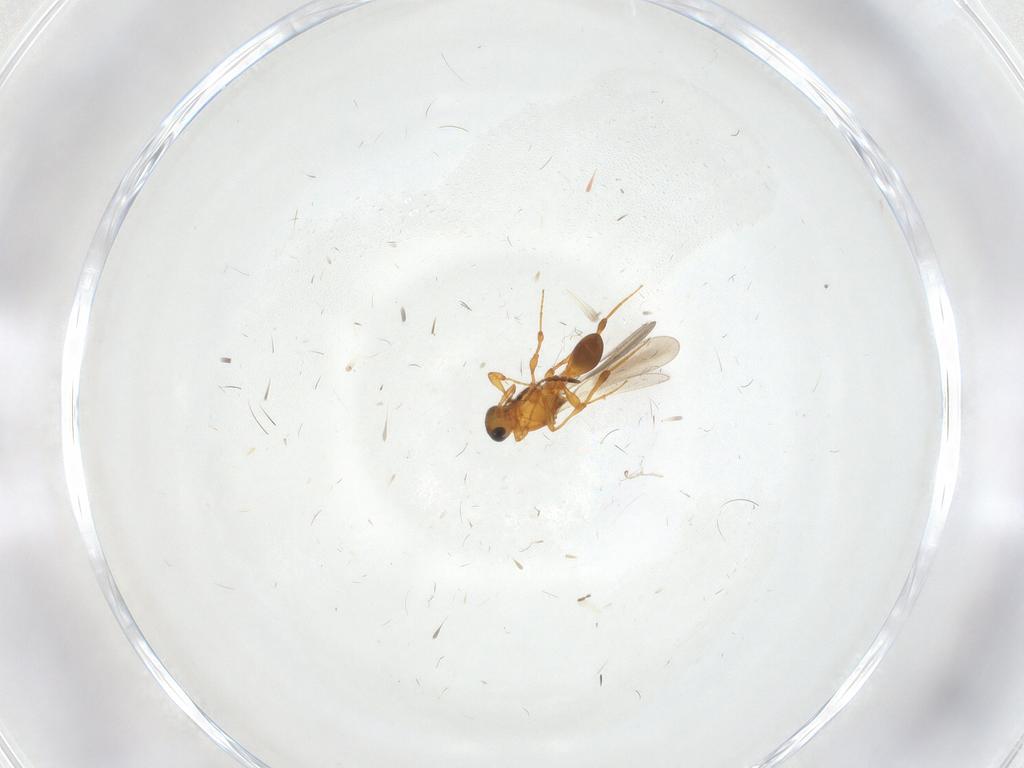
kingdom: Animalia
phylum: Arthropoda
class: Insecta
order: Hymenoptera
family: Platygastridae
